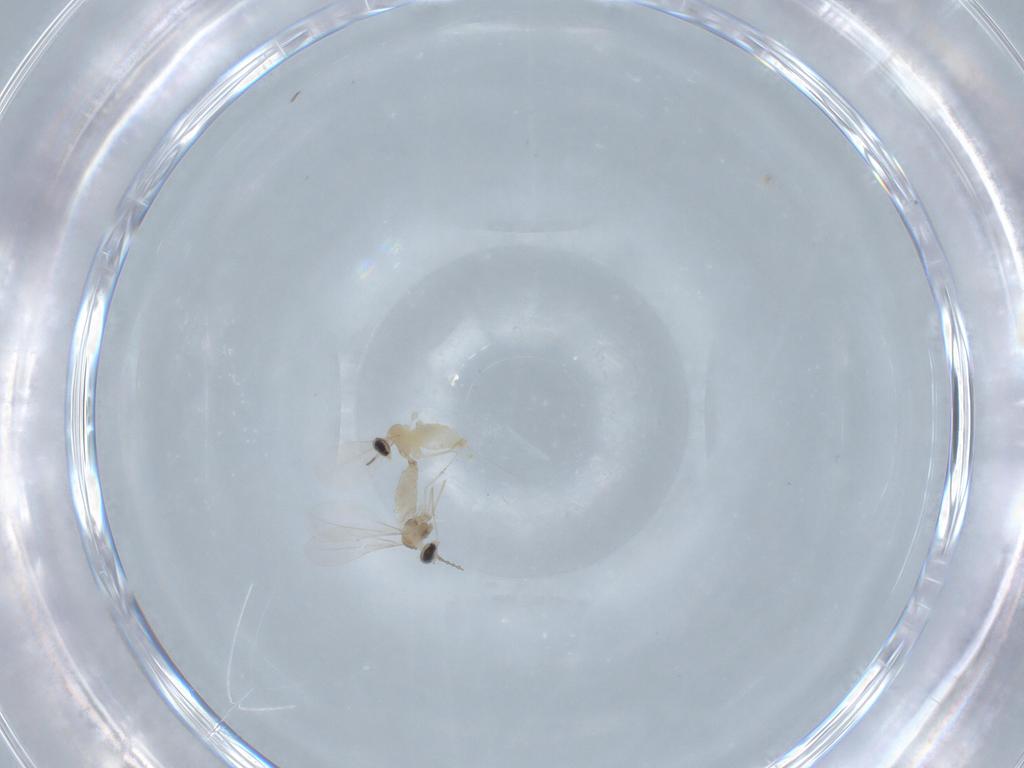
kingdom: Animalia
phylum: Arthropoda
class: Insecta
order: Diptera
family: Cecidomyiidae
